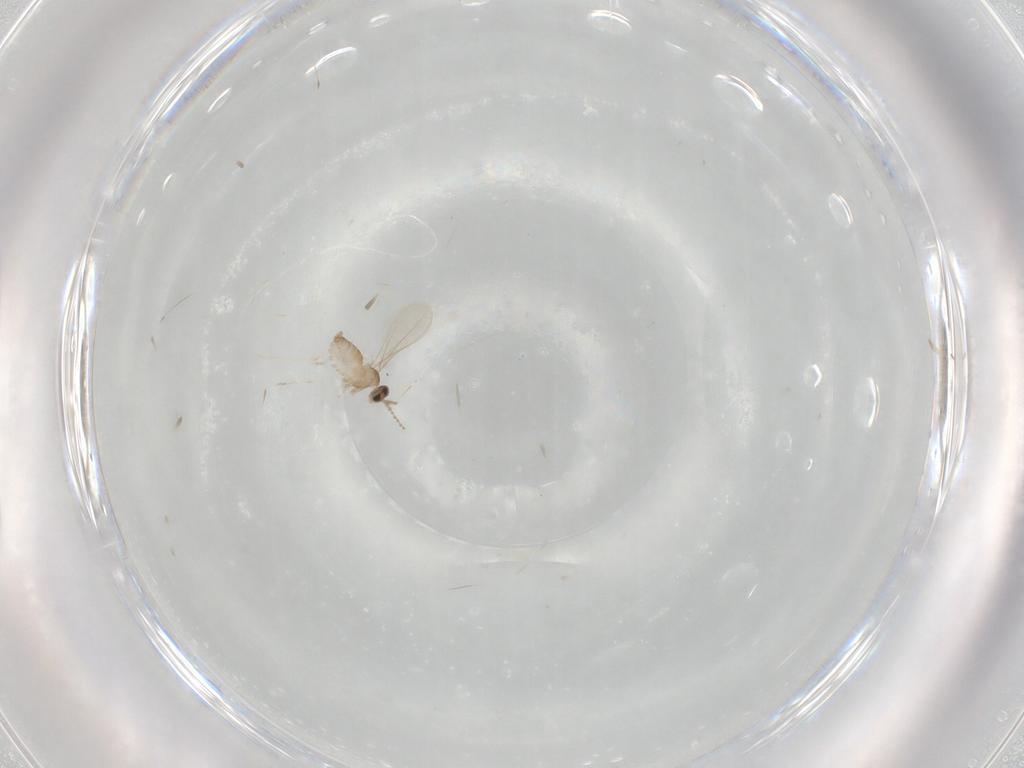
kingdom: Animalia
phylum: Arthropoda
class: Insecta
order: Diptera
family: Cecidomyiidae
